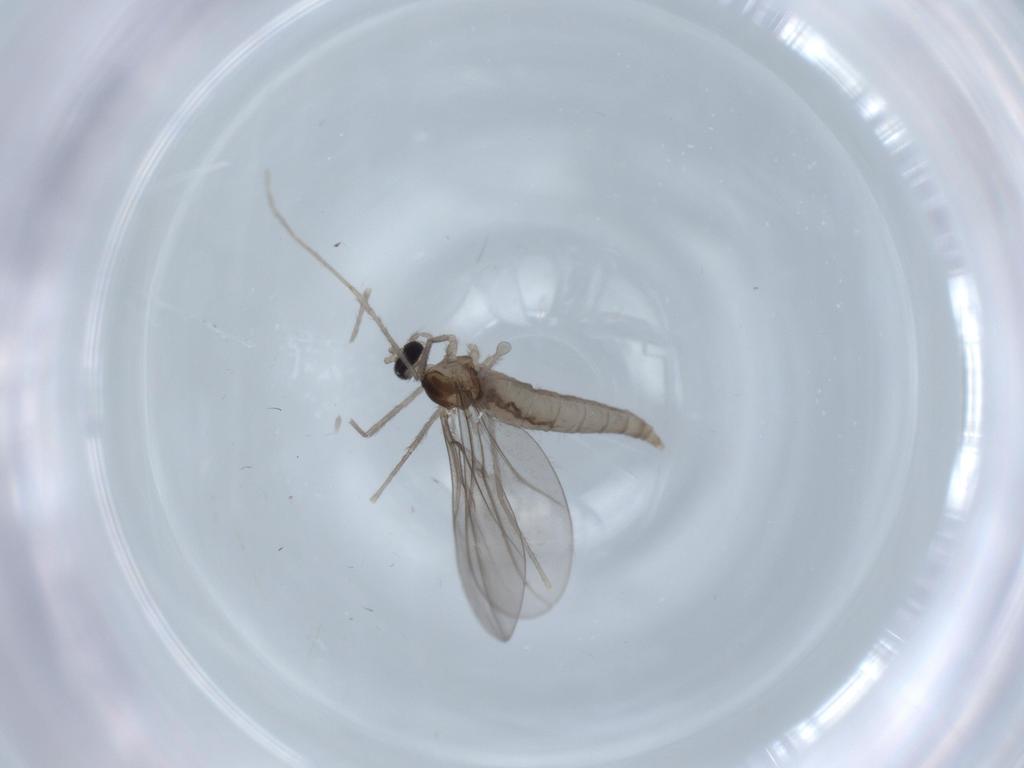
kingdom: Animalia
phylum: Arthropoda
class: Insecta
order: Diptera
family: Cecidomyiidae
